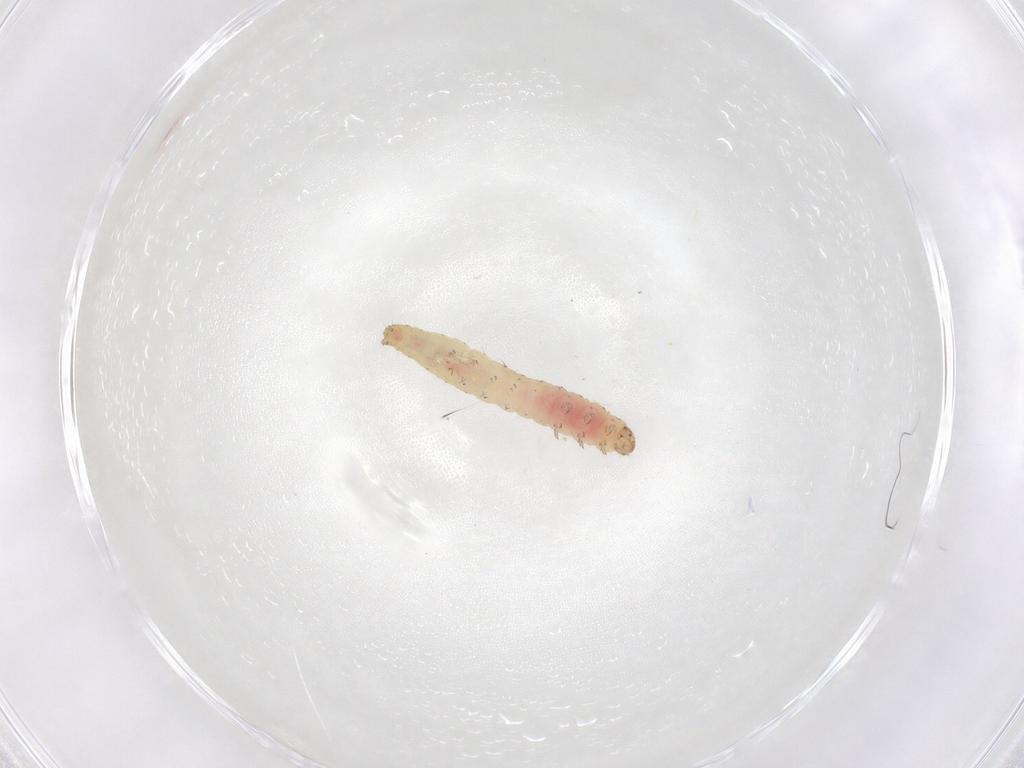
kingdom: Animalia
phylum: Arthropoda
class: Insecta
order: Lepidoptera
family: Gelechiidae
